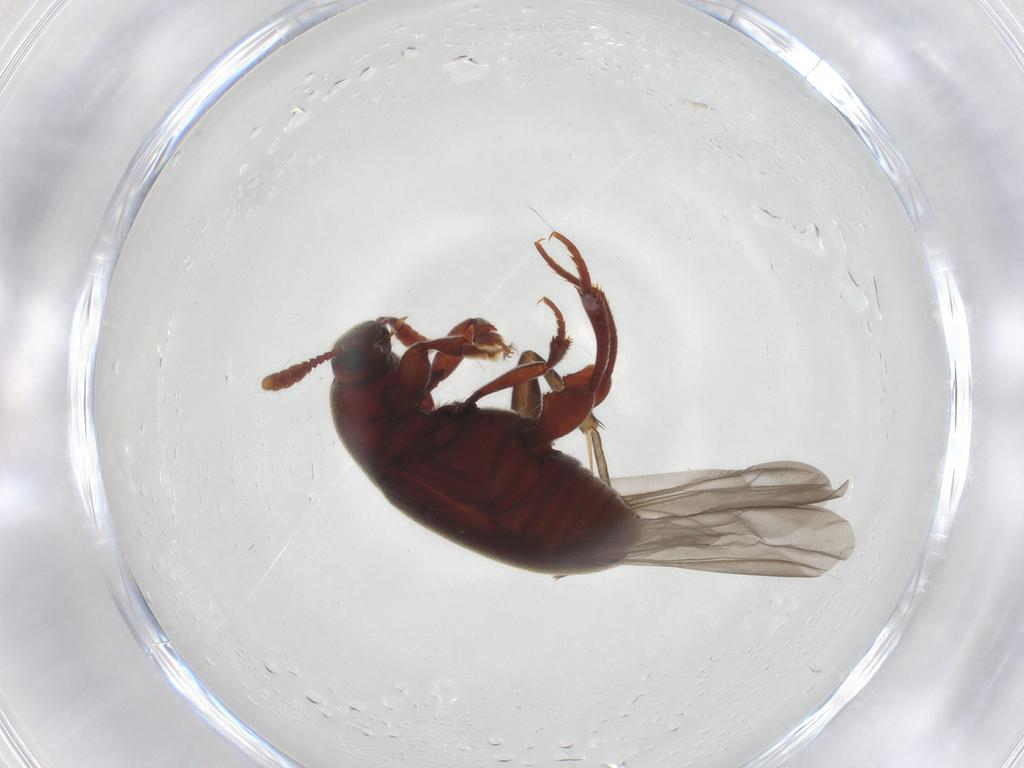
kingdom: Animalia
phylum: Arthropoda
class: Insecta
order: Coleoptera
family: Leiodidae
